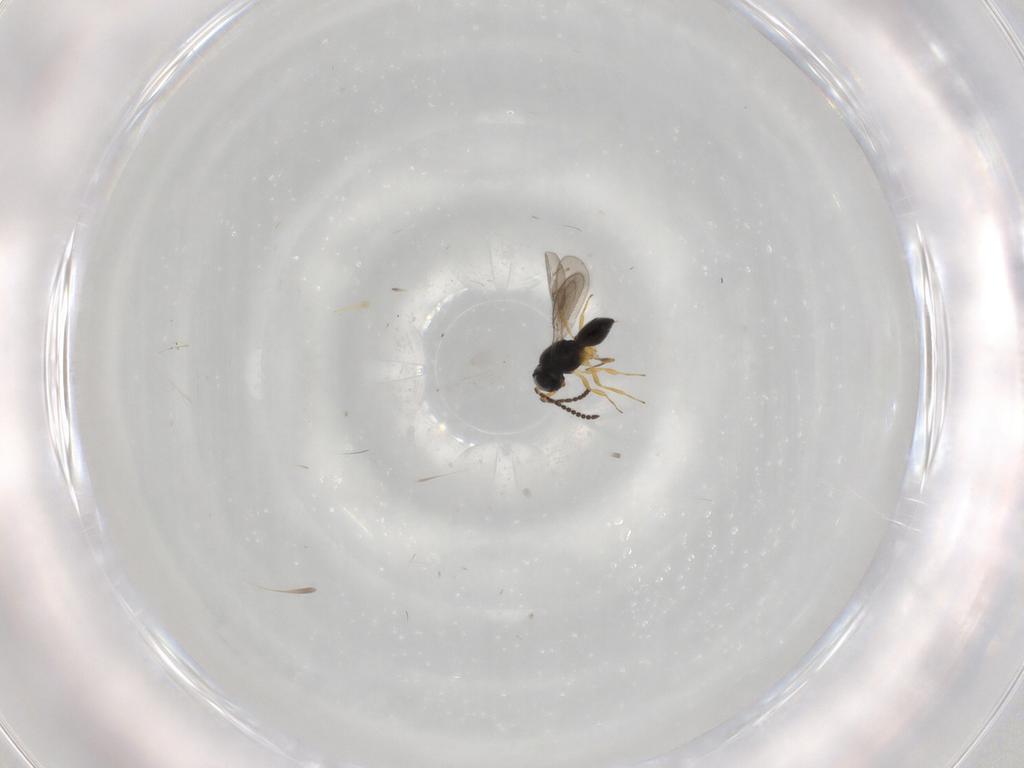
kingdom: Animalia
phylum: Arthropoda
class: Insecta
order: Hymenoptera
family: Scelionidae
